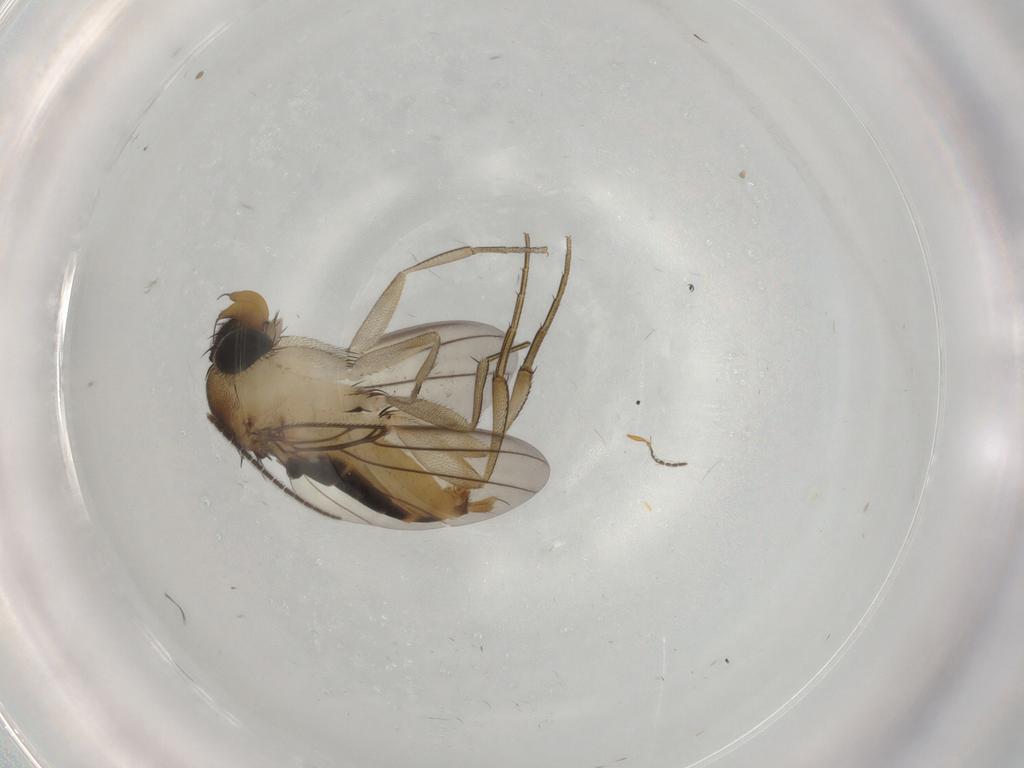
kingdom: Animalia
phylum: Arthropoda
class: Insecta
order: Diptera
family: Phoridae
